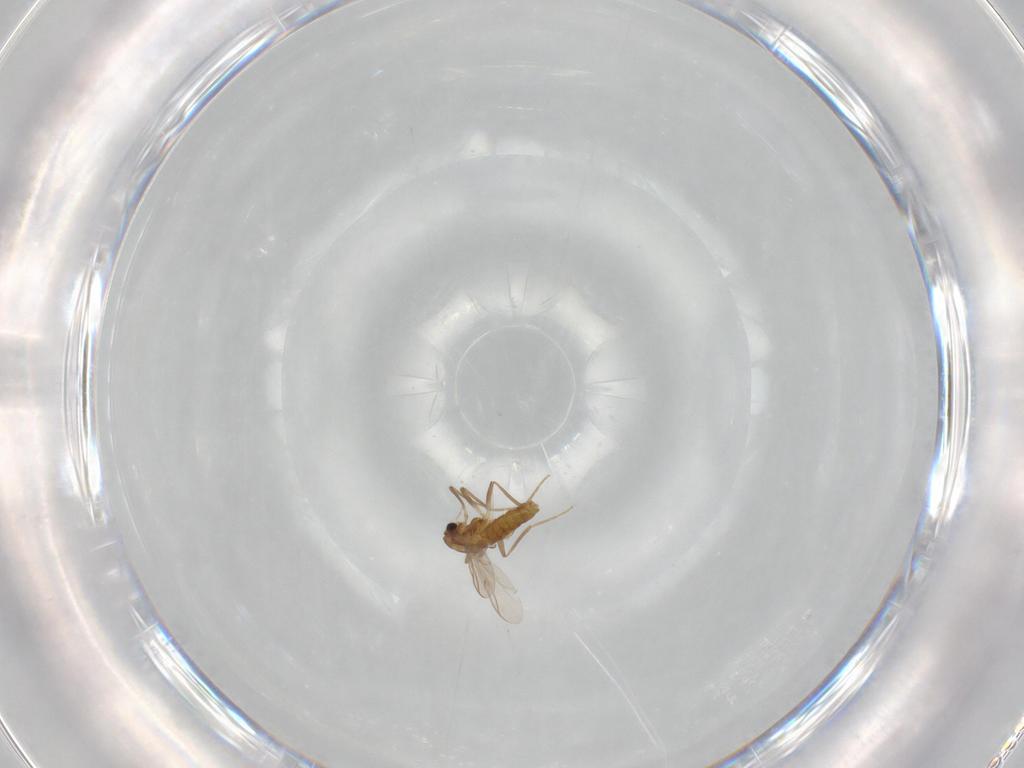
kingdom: Animalia
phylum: Arthropoda
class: Insecta
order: Diptera
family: Chironomidae
